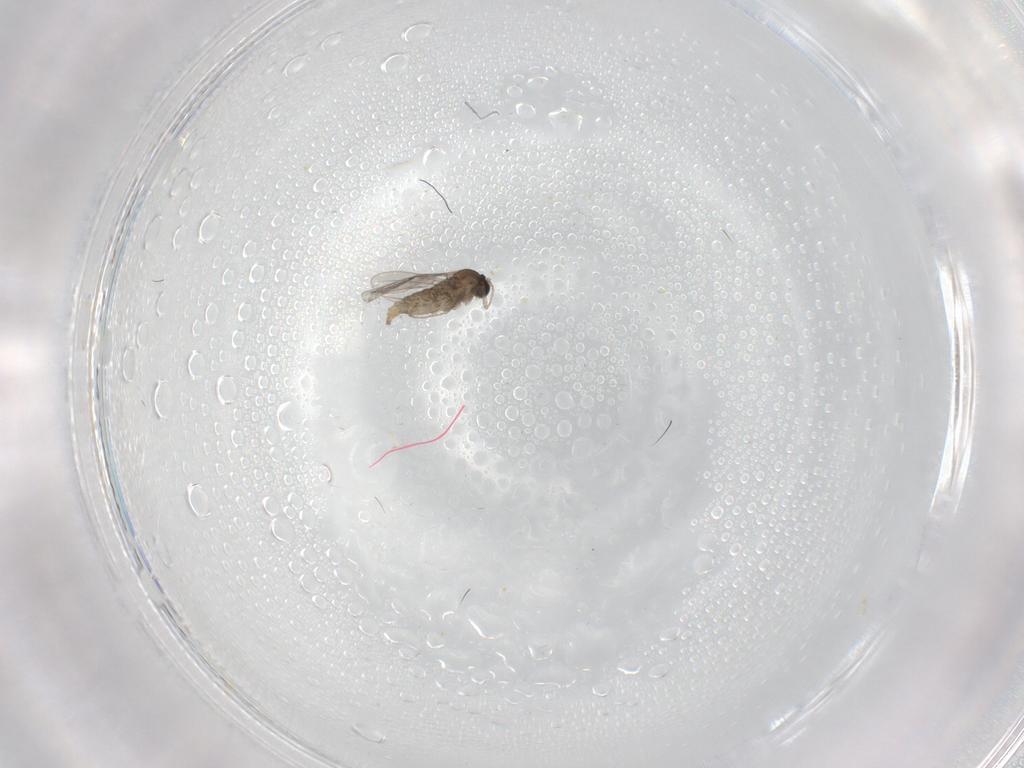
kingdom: Animalia
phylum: Arthropoda
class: Insecta
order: Diptera
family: Cecidomyiidae
